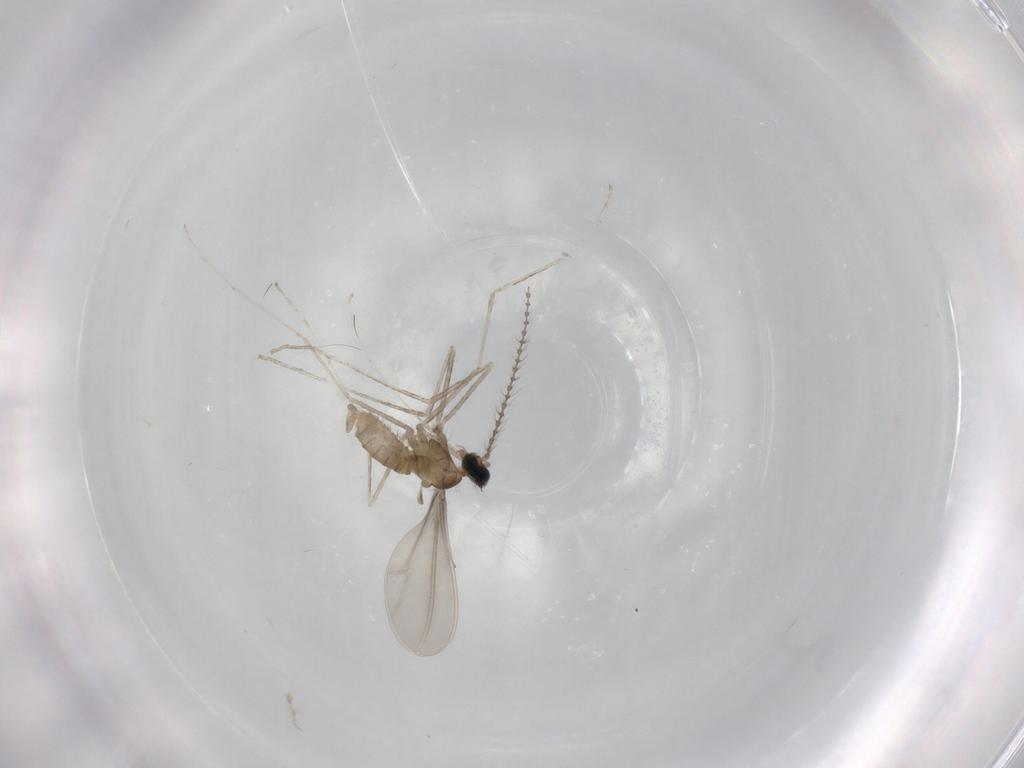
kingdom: Animalia
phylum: Arthropoda
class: Insecta
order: Diptera
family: Cecidomyiidae
